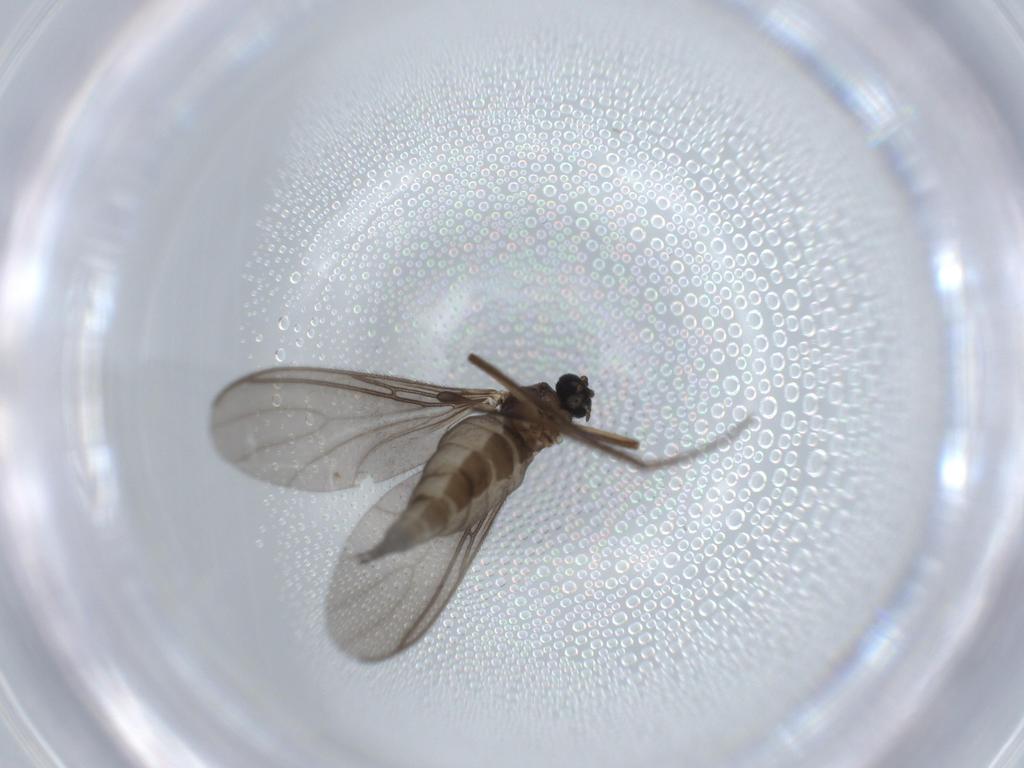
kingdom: Animalia
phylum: Arthropoda
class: Insecta
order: Diptera
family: Sciaridae
